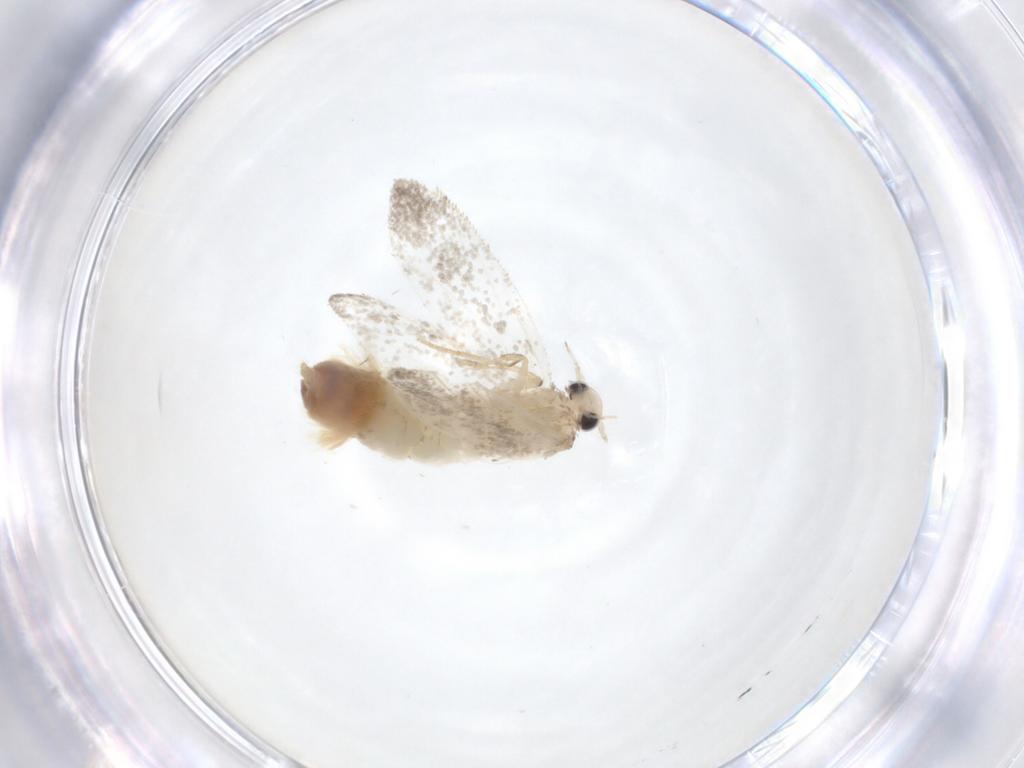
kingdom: Animalia
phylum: Arthropoda
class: Insecta
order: Lepidoptera
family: Psychidae
